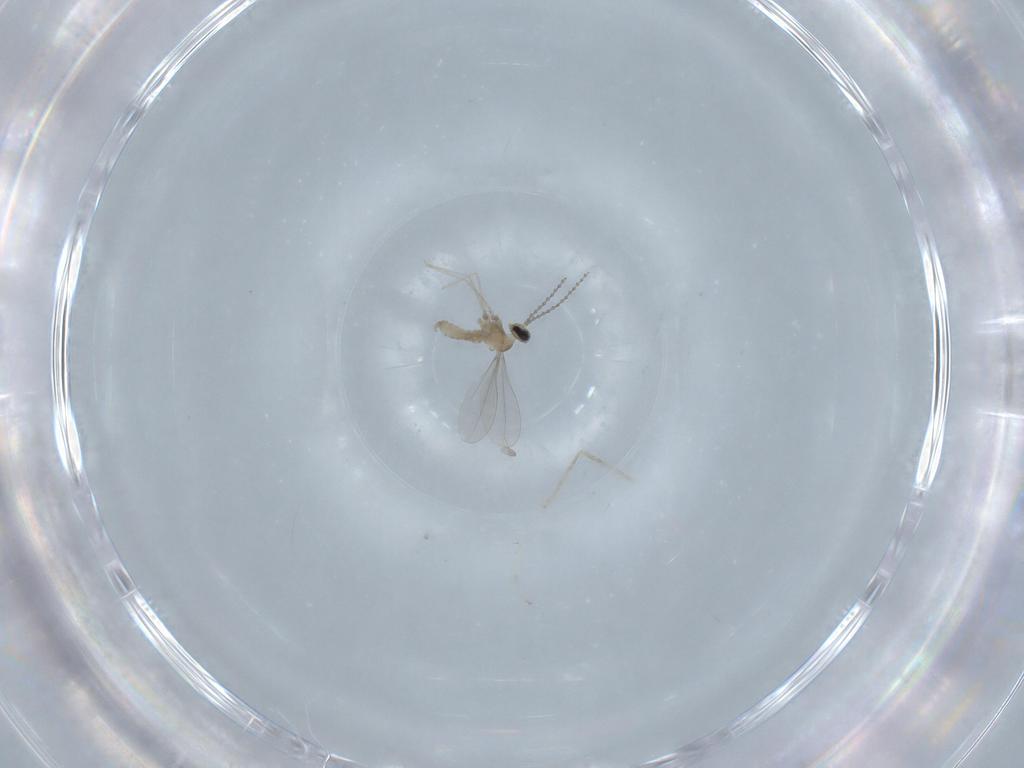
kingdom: Animalia
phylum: Arthropoda
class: Insecta
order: Diptera
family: Cecidomyiidae
